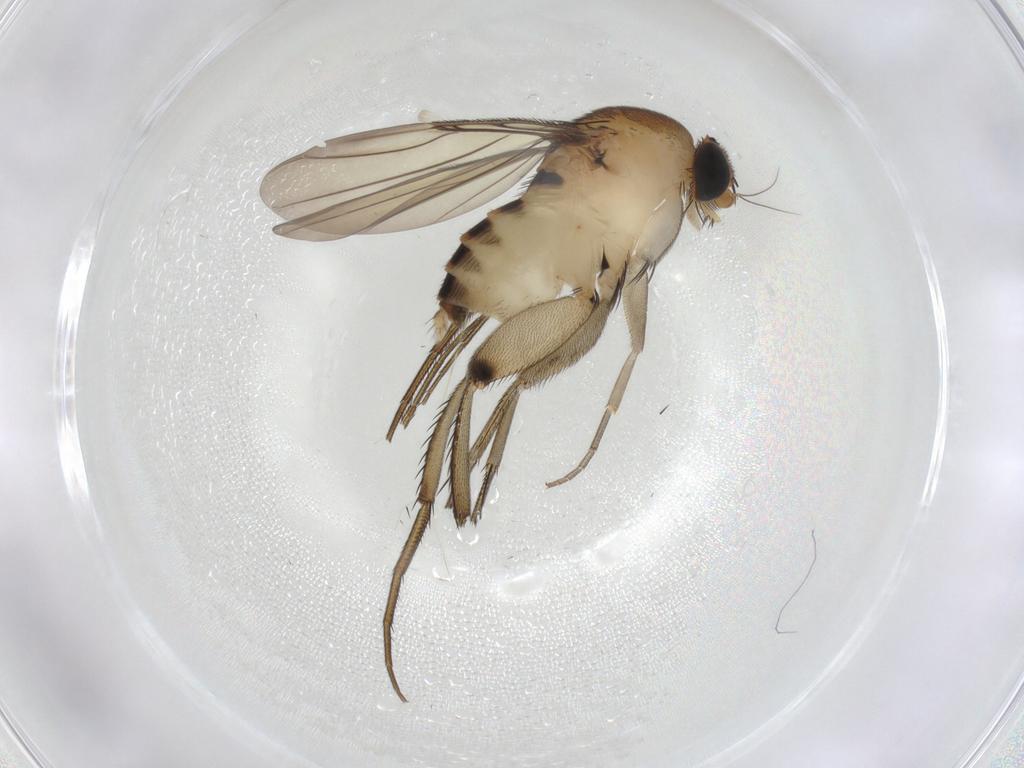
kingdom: Animalia
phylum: Arthropoda
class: Insecta
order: Diptera
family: Phoridae
